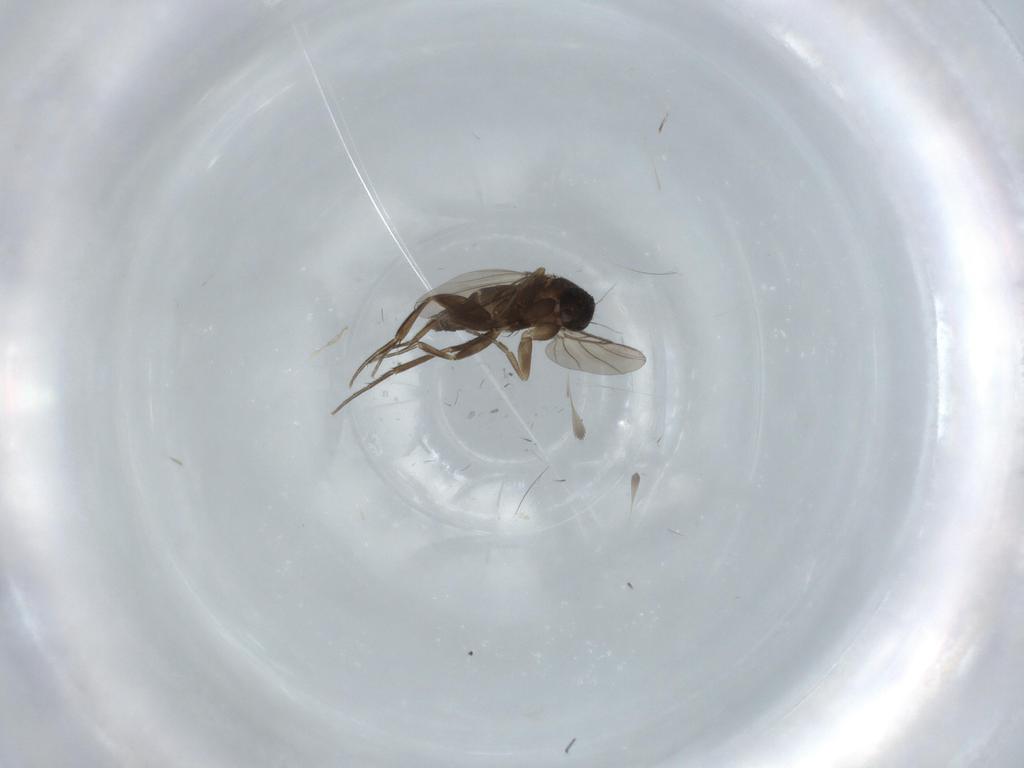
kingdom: Animalia
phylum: Arthropoda
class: Insecta
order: Diptera
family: Phoridae
